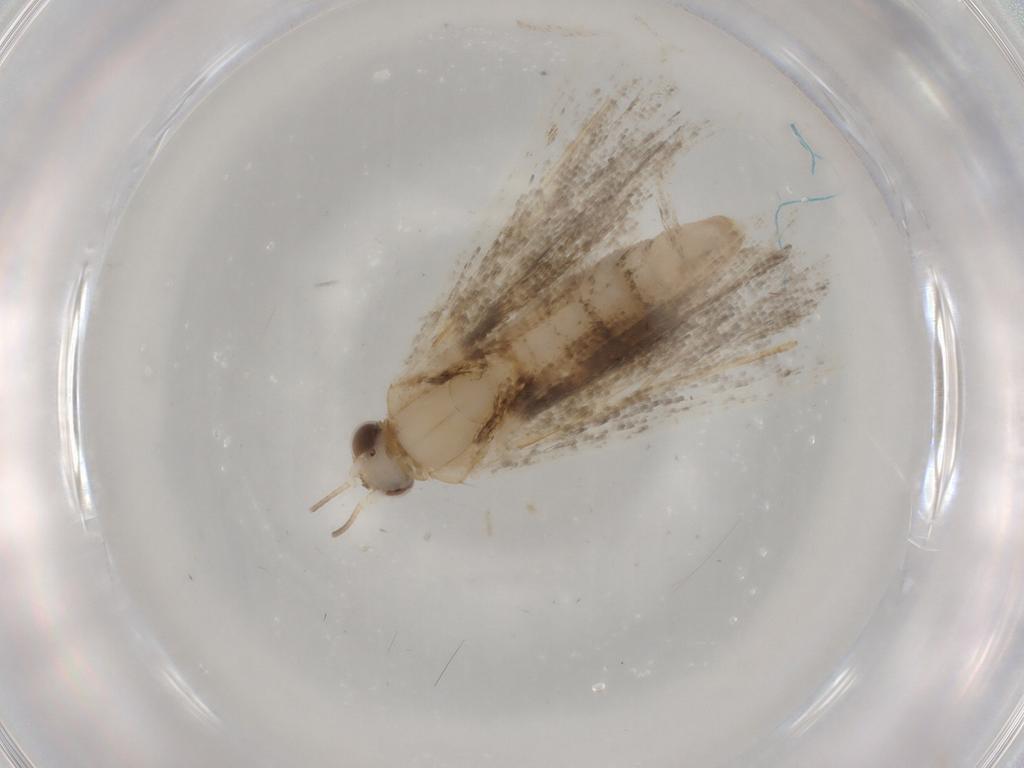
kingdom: Animalia
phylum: Arthropoda
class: Insecta
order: Lepidoptera
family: Erebidae
